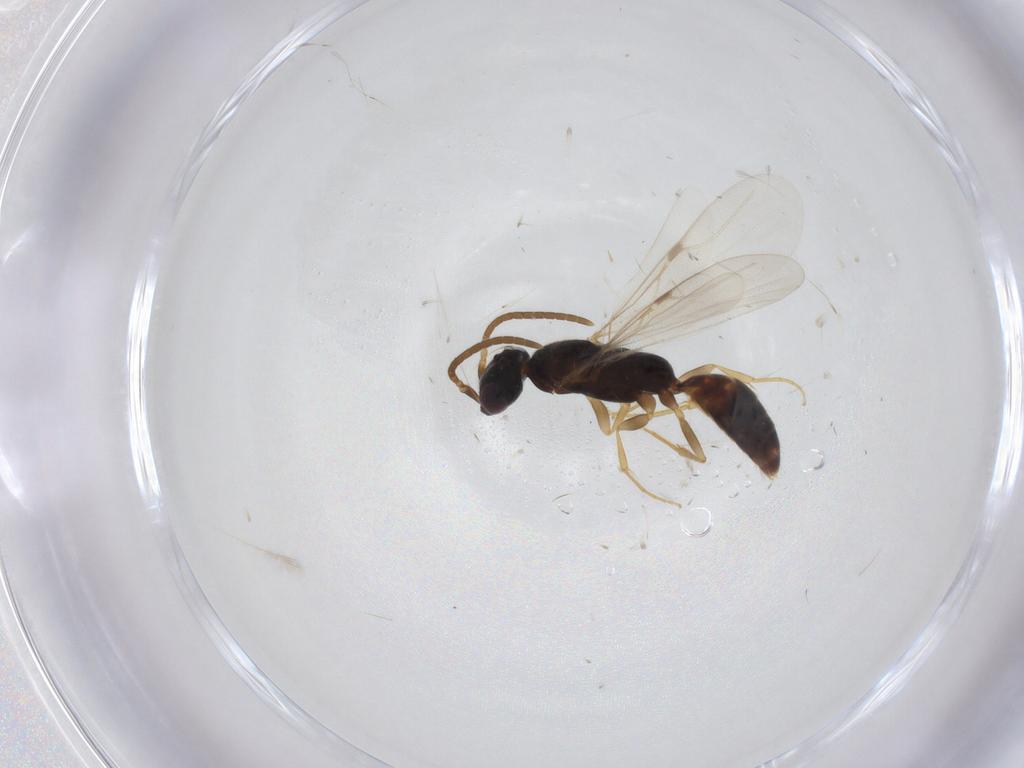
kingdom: Animalia
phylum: Arthropoda
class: Insecta
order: Hymenoptera
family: Bethylidae
